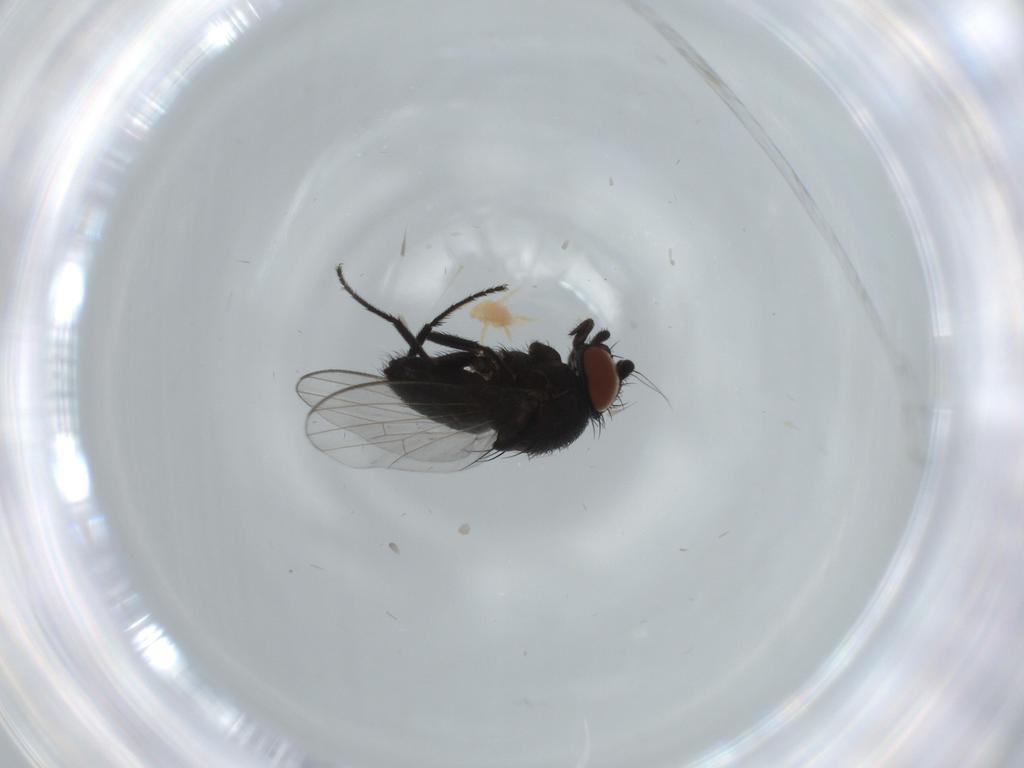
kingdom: Animalia
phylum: Arthropoda
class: Insecta
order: Diptera
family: Milichiidae
